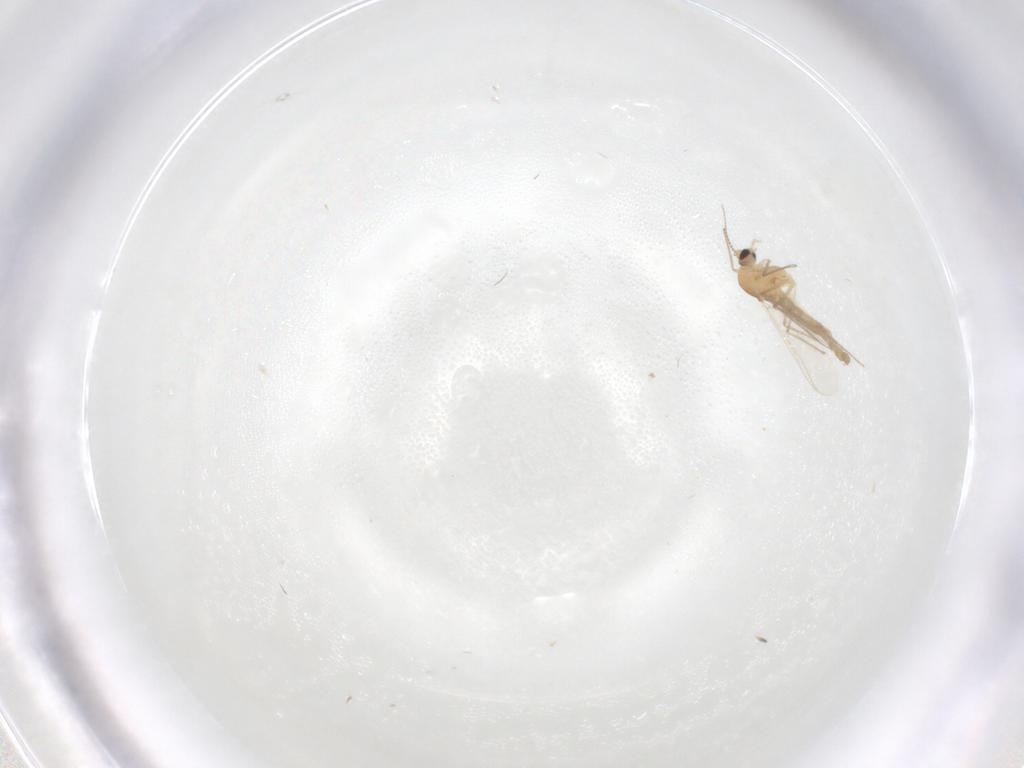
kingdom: Animalia
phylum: Arthropoda
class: Insecta
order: Diptera
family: Chironomidae
